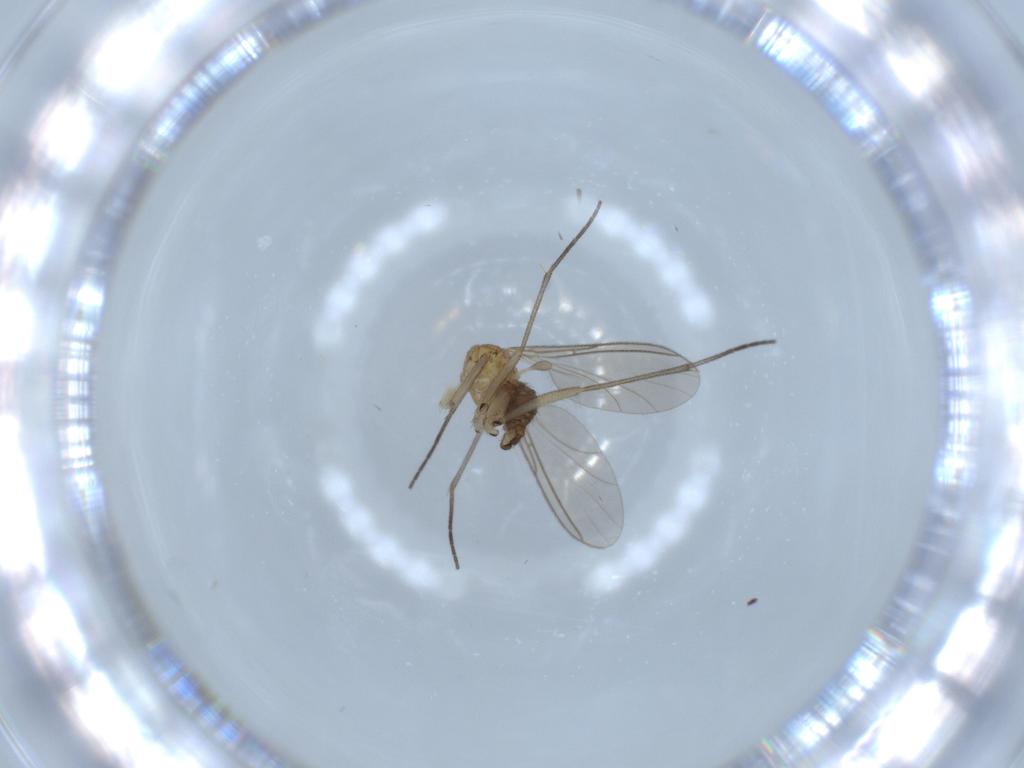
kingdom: Animalia
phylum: Arthropoda
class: Insecta
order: Diptera
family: Sciaridae
